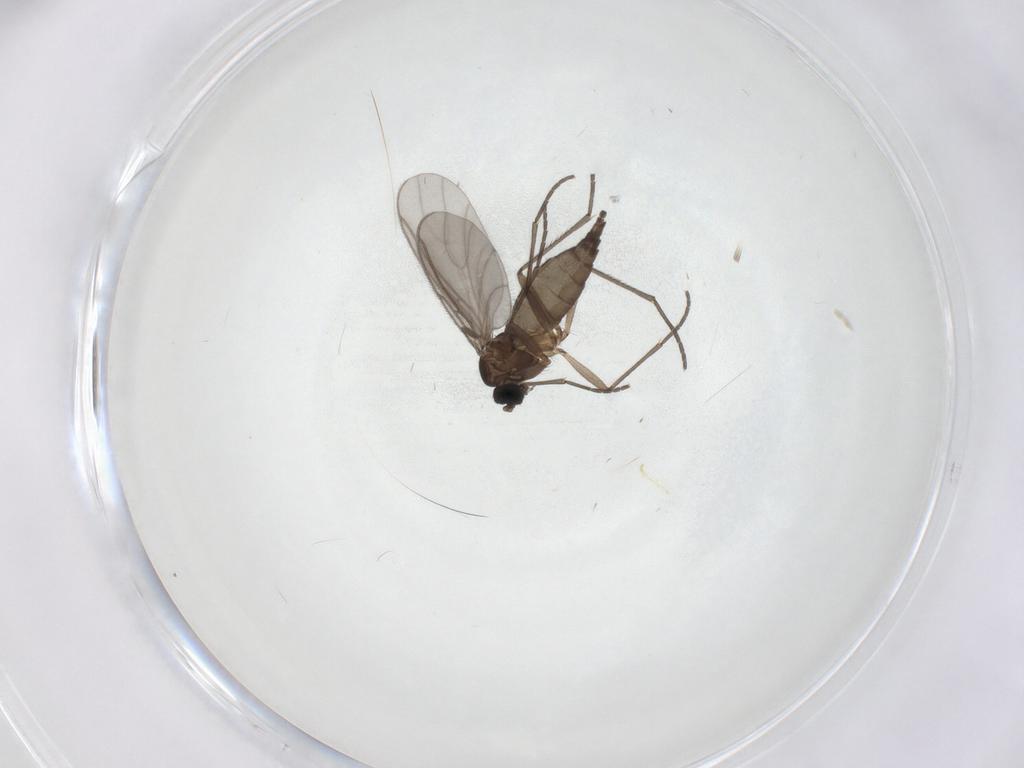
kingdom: Animalia
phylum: Arthropoda
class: Insecta
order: Diptera
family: Sciaridae
